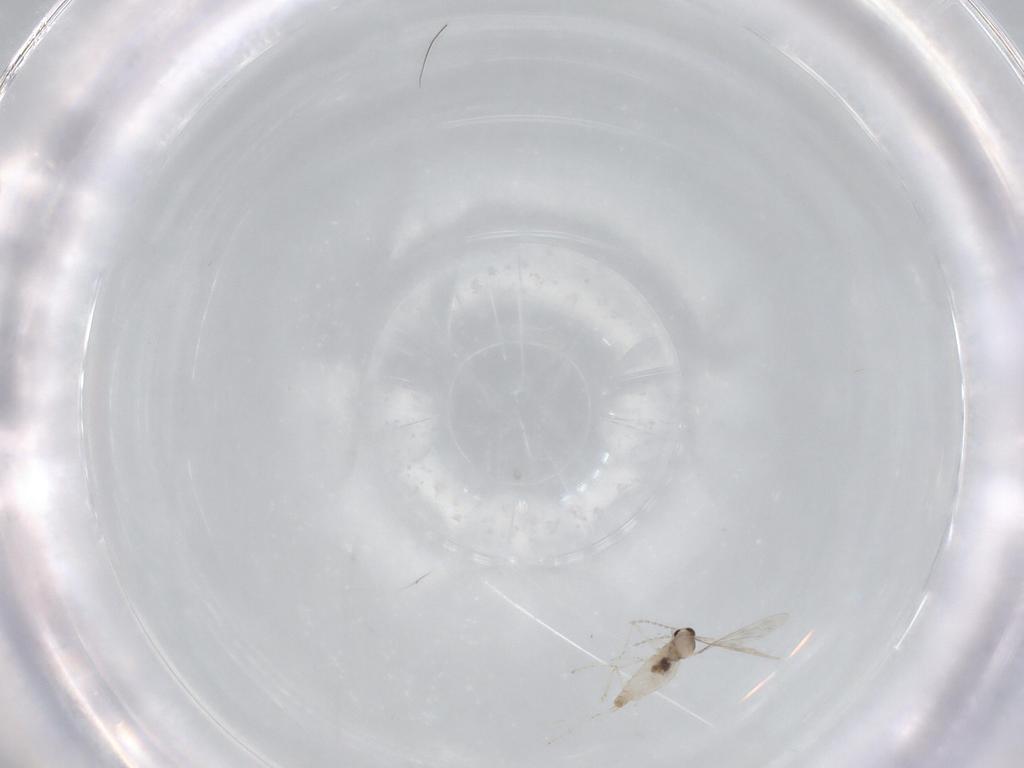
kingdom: Animalia
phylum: Arthropoda
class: Insecta
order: Diptera
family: Cecidomyiidae
